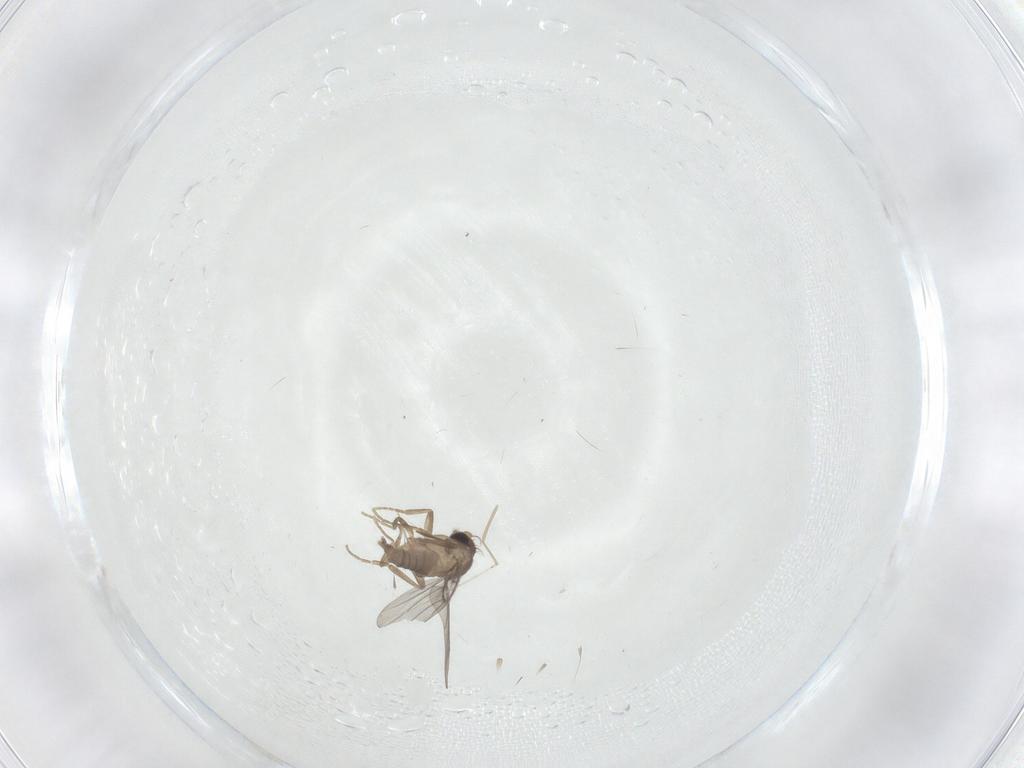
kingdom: Animalia
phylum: Arthropoda
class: Insecta
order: Diptera
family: Cecidomyiidae
